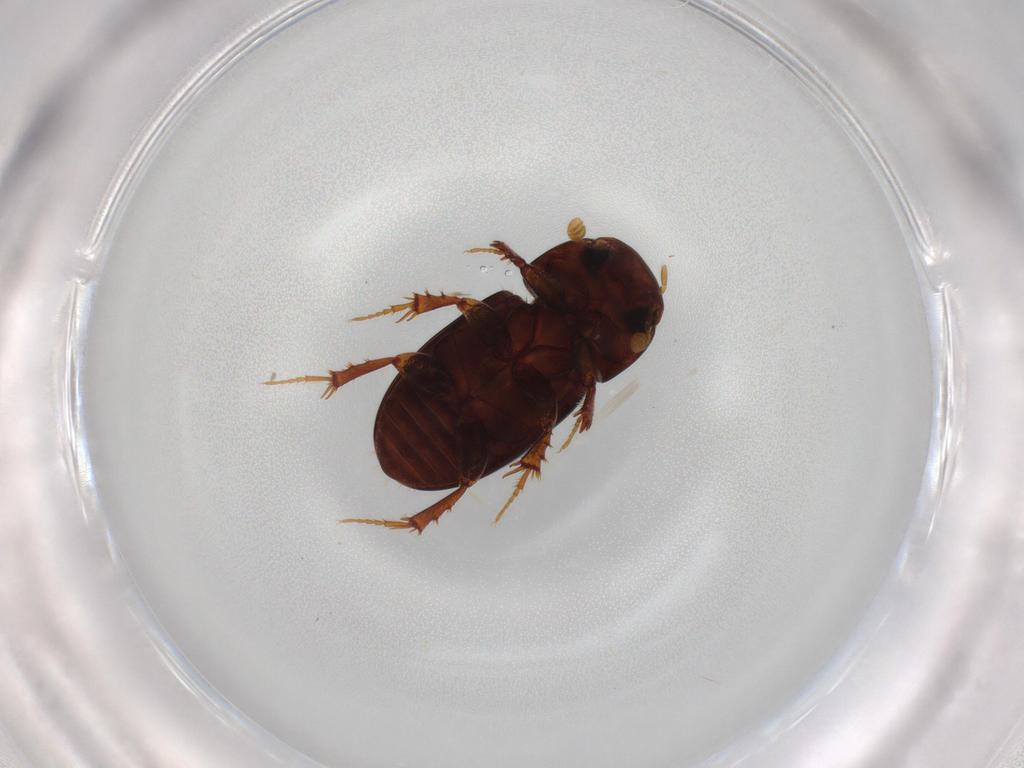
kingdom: Animalia
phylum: Arthropoda
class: Insecta
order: Coleoptera
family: Scarabaeidae
